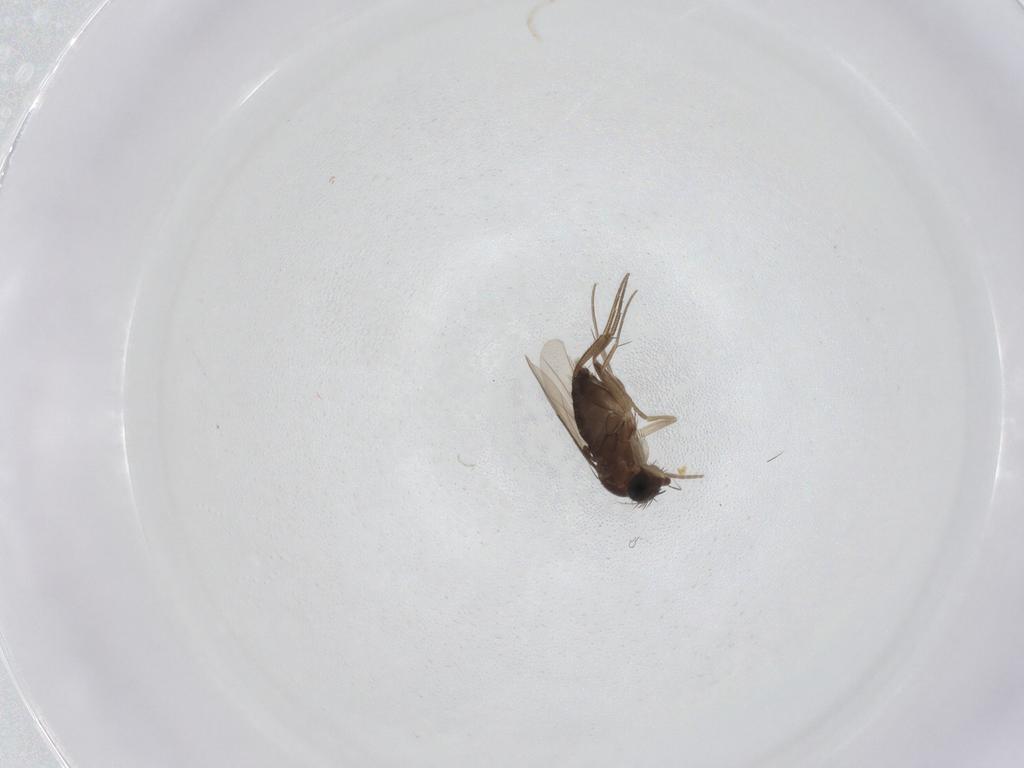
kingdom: Animalia
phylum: Arthropoda
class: Insecta
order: Diptera
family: Phoridae
